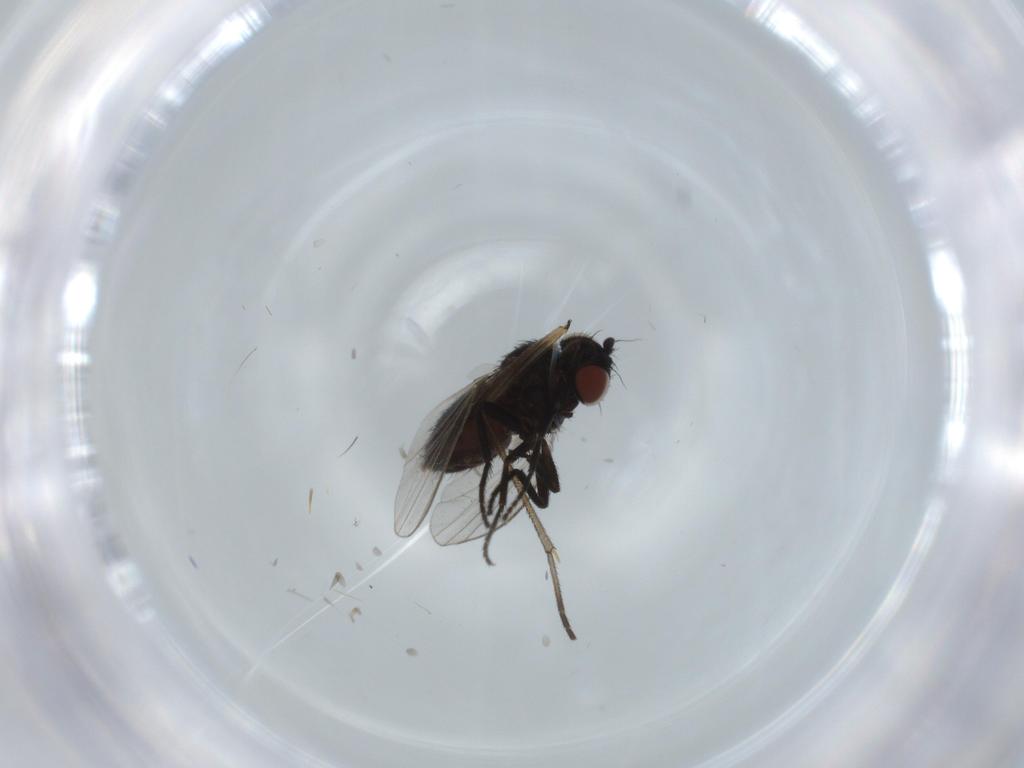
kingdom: Animalia
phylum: Arthropoda
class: Insecta
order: Diptera
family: Milichiidae
